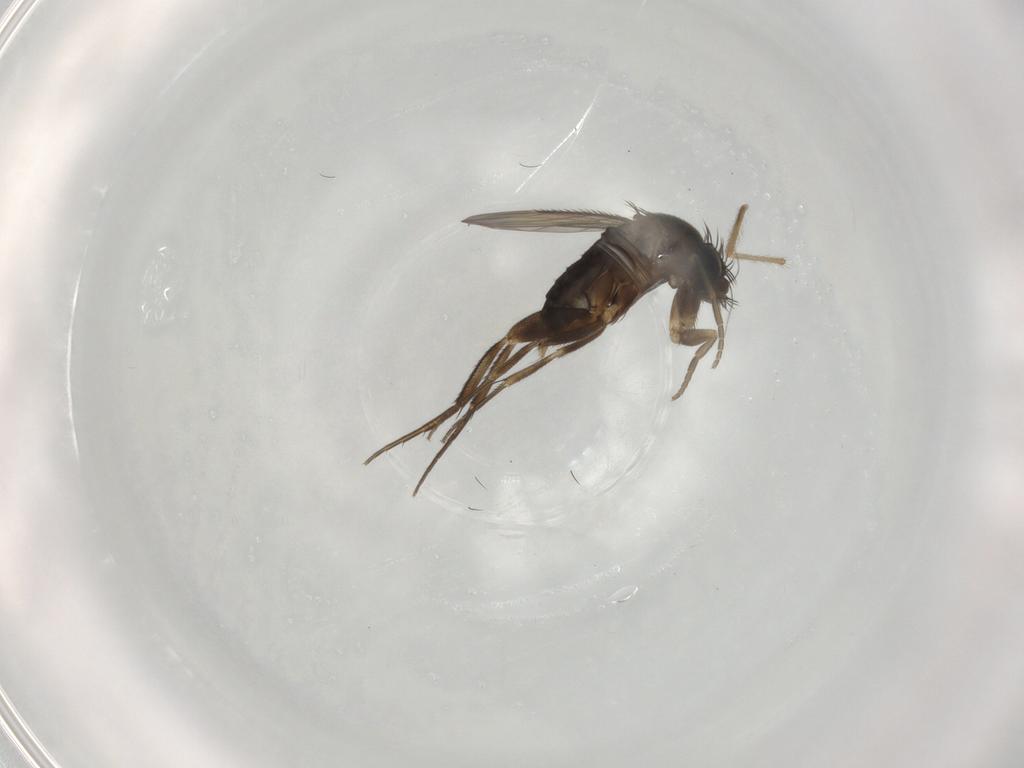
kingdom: Animalia
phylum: Arthropoda
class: Insecta
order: Diptera
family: Phoridae
